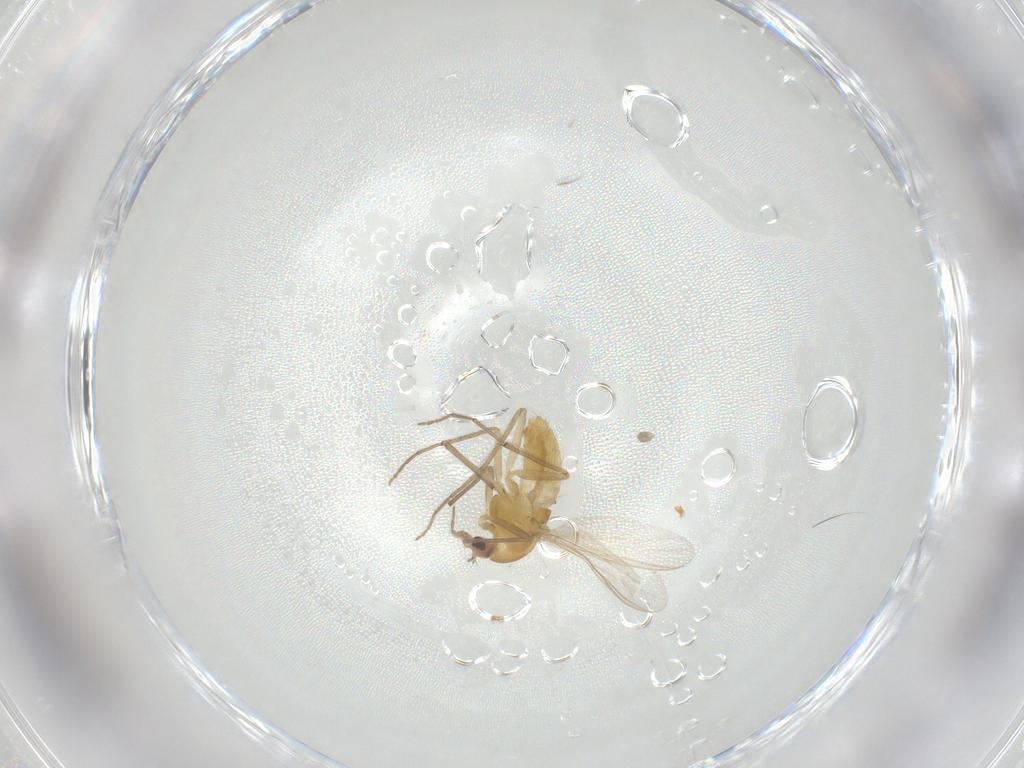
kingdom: Animalia
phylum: Arthropoda
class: Insecta
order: Diptera
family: Chironomidae
